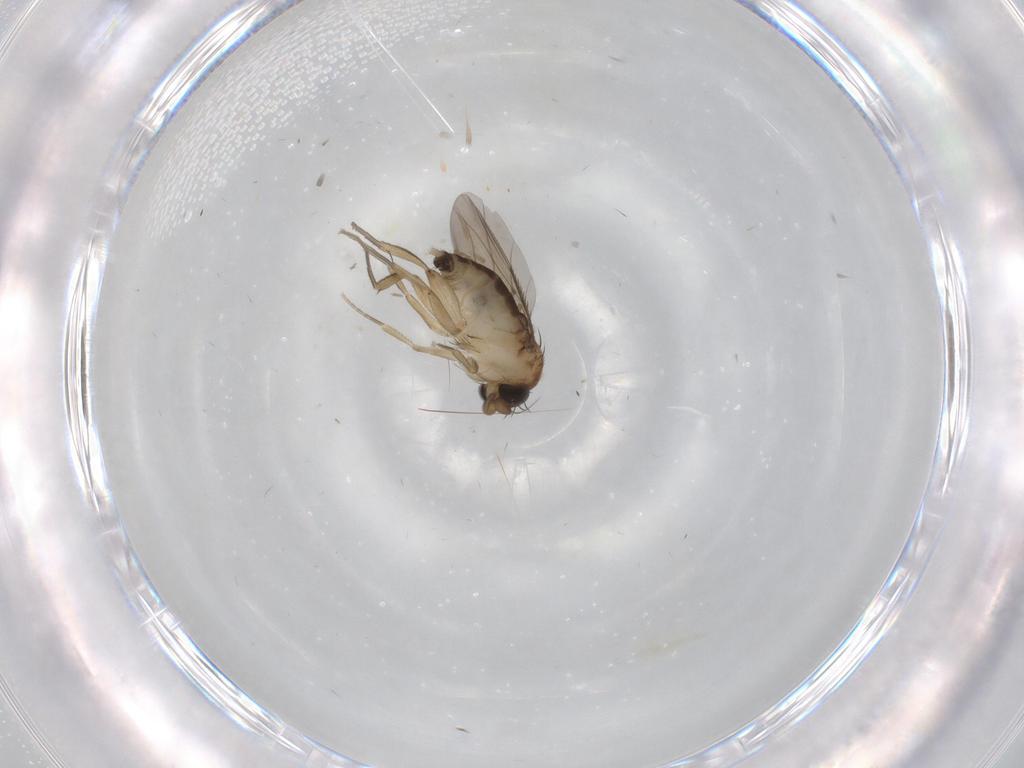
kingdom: Animalia
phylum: Arthropoda
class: Insecta
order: Diptera
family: Phoridae
